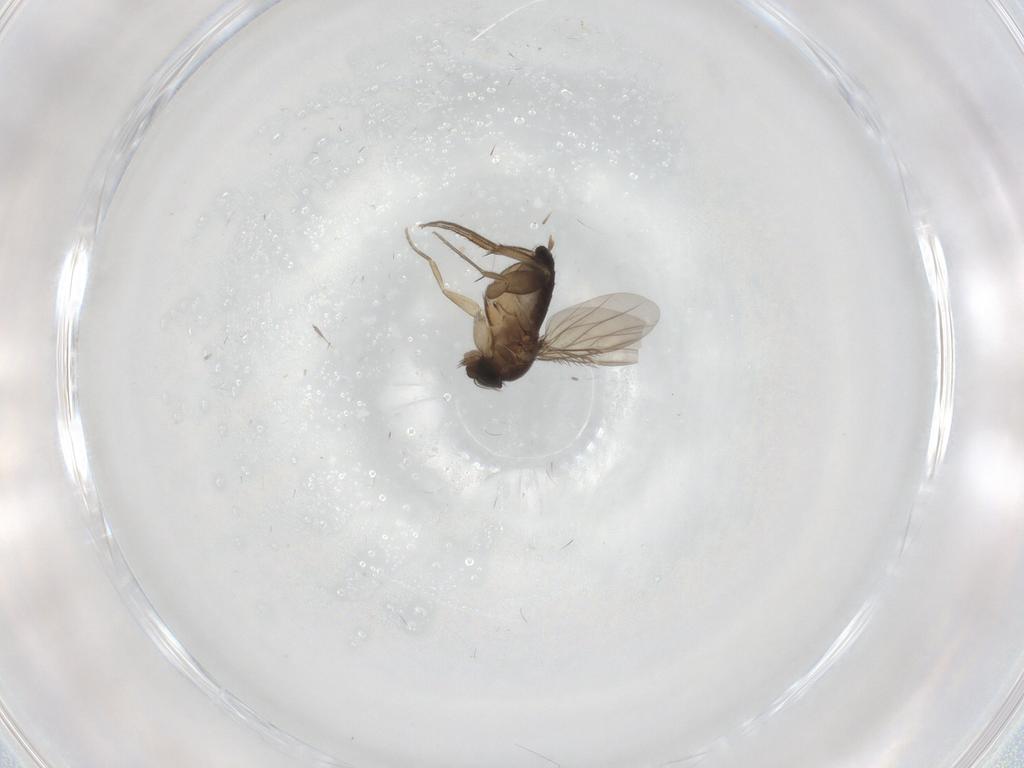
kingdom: Animalia
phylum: Arthropoda
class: Insecta
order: Diptera
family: Phoridae
